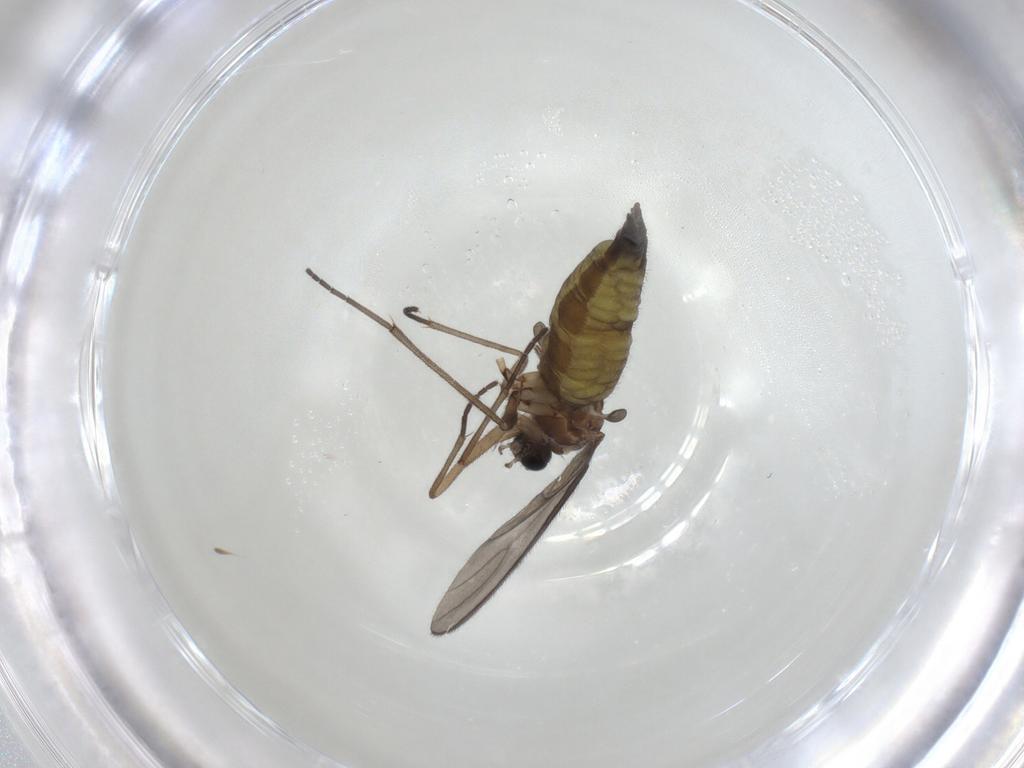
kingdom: Animalia
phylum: Arthropoda
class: Insecta
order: Diptera
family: Sciaridae
